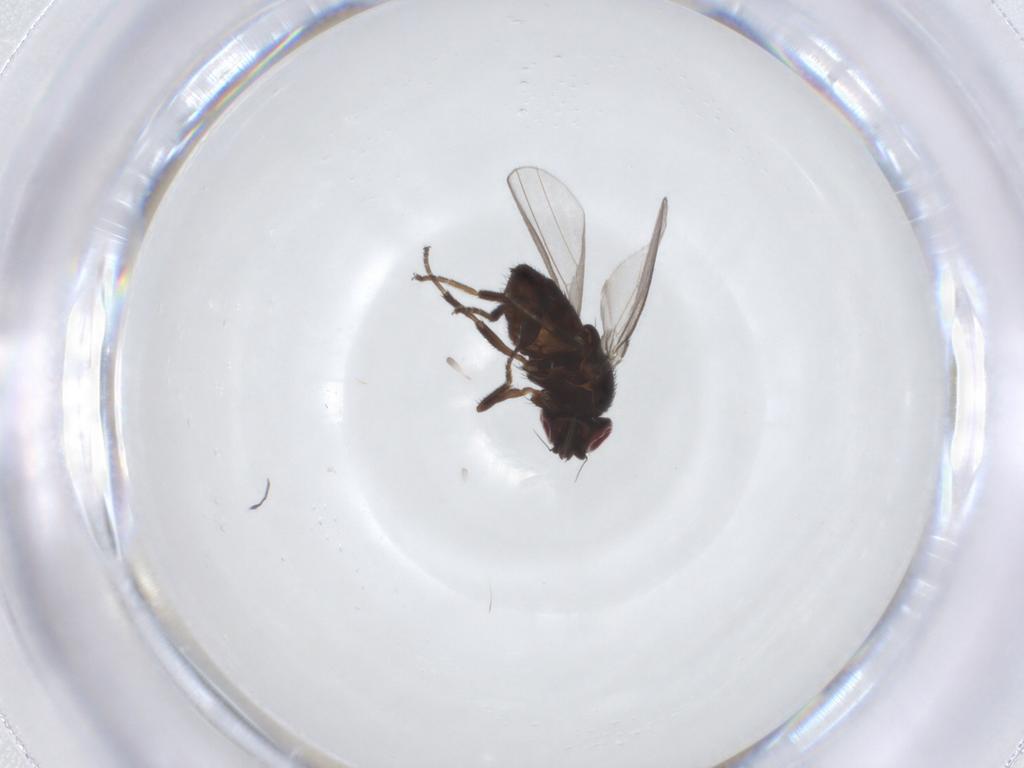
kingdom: Animalia
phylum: Arthropoda
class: Insecta
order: Diptera
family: Milichiidae
